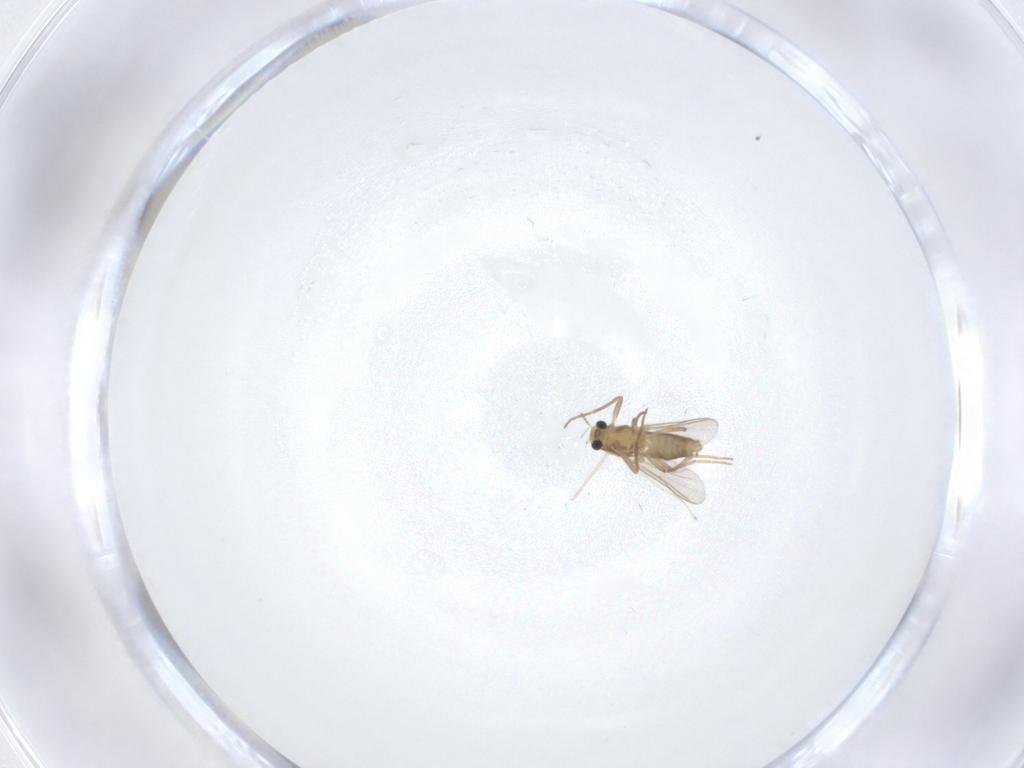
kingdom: Animalia
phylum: Arthropoda
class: Insecta
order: Diptera
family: Chironomidae
